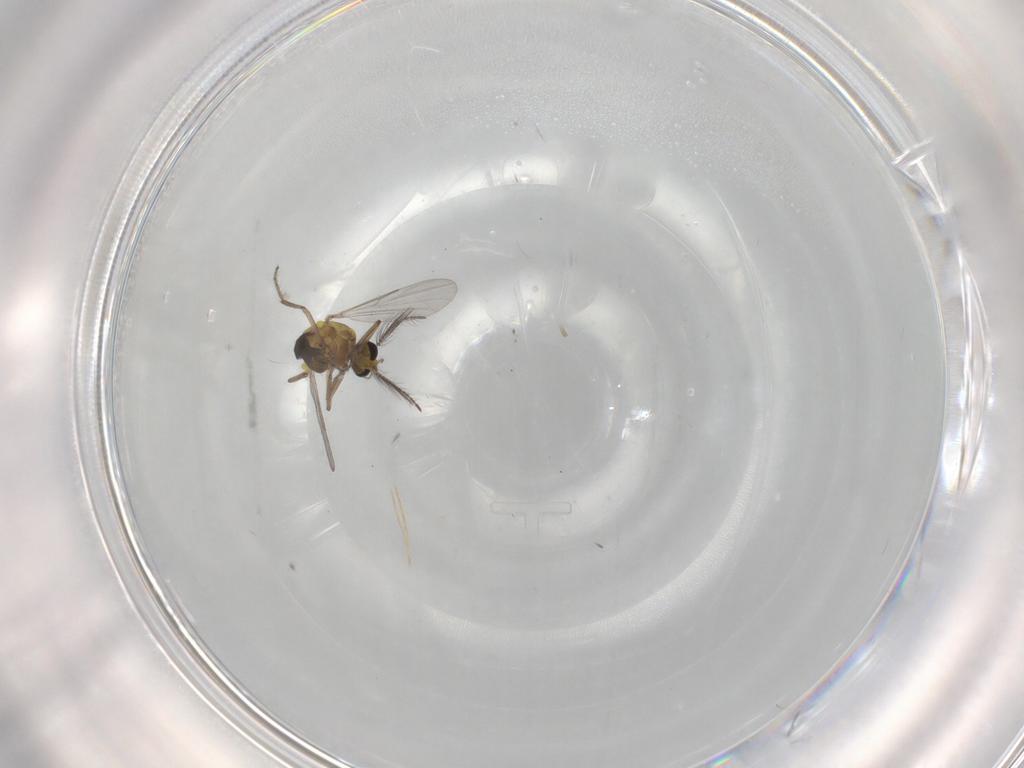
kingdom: Animalia
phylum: Arthropoda
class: Insecta
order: Diptera
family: Ceratopogonidae
